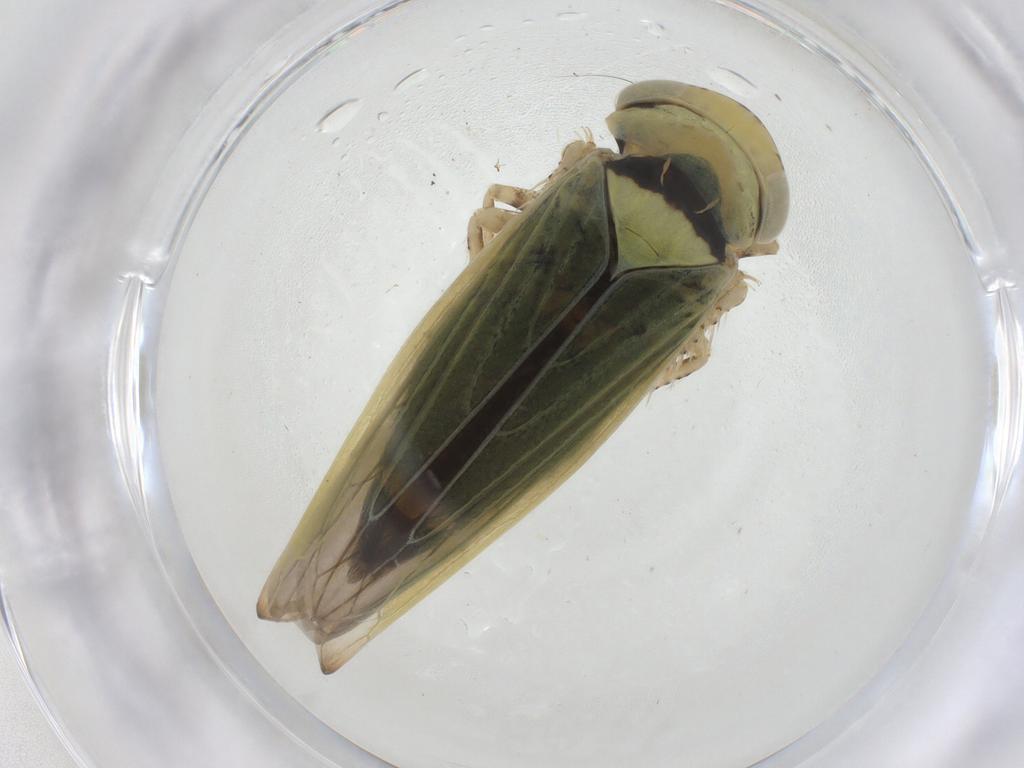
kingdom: Animalia
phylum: Arthropoda
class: Insecta
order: Hemiptera
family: Cicadellidae
